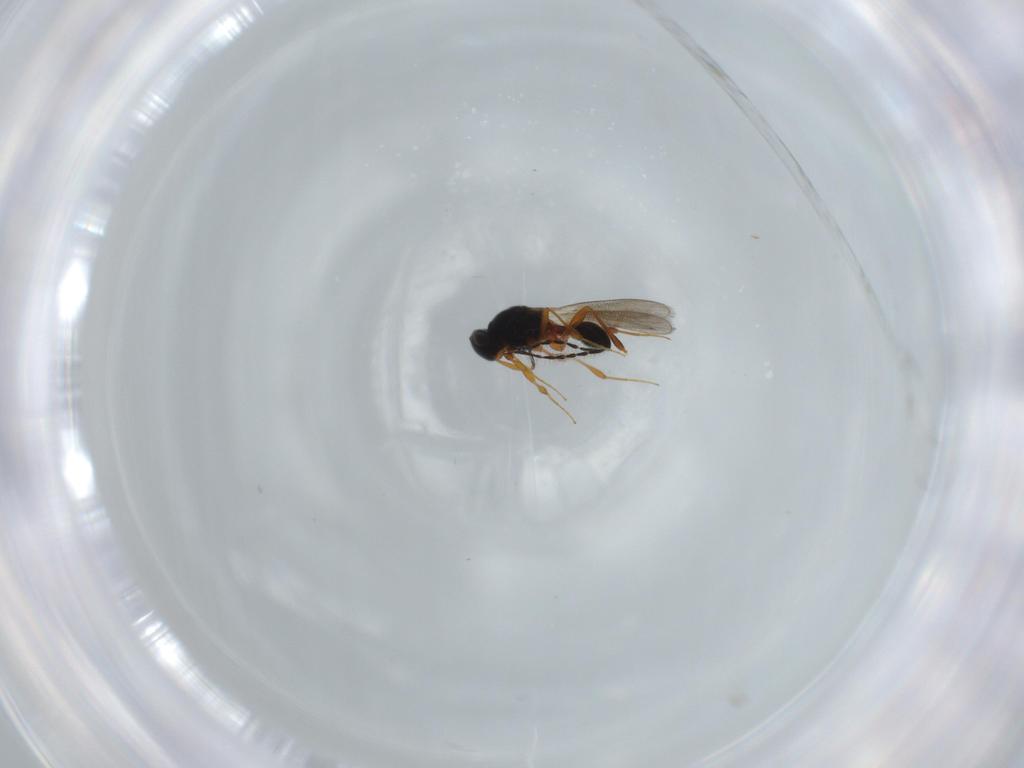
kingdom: Animalia
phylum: Arthropoda
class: Insecta
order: Hymenoptera
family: Platygastridae
